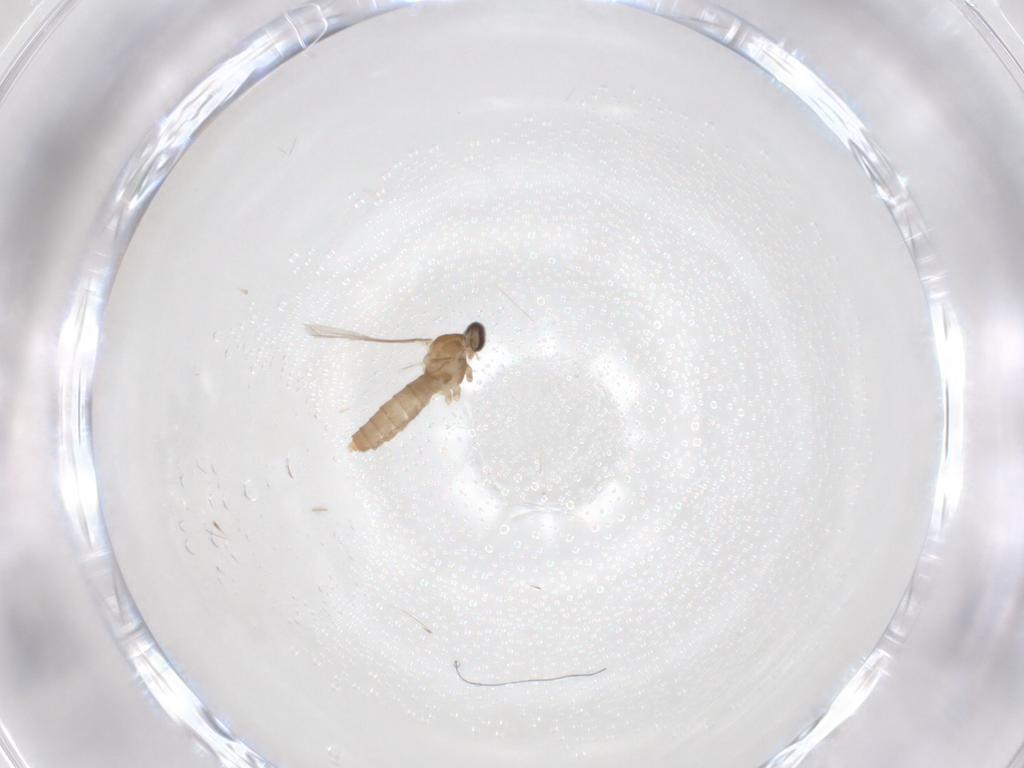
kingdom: Animalia
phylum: Arthropoda
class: Insecta
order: Diptera
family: Cecidomyiidae
